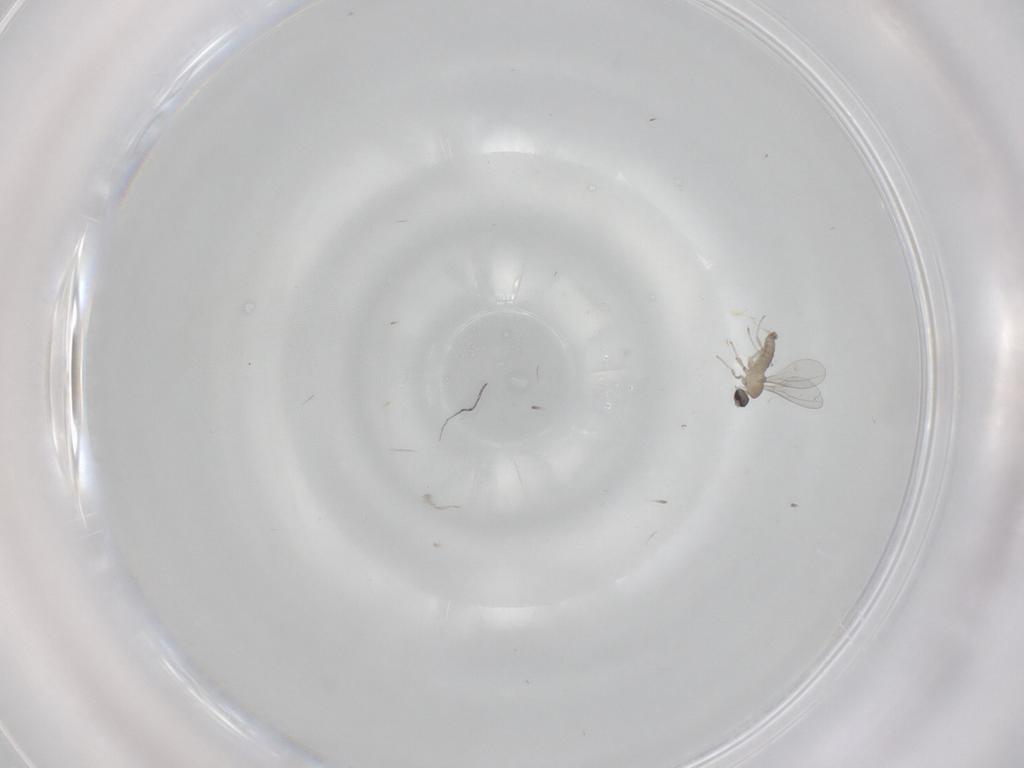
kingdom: Animalia
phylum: Arthropoda
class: Insecta
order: Diptera
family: Cecidomyiidae
